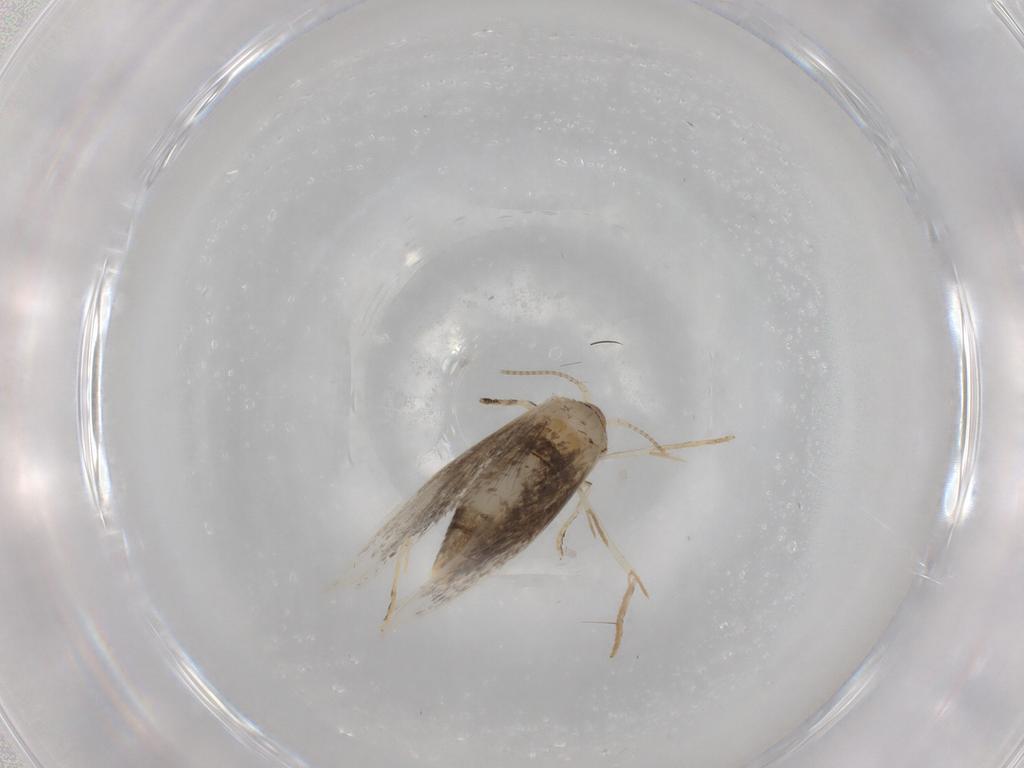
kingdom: Animalia
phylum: Arthropoda
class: Insecta
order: Lepidoptera
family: Tineidae
